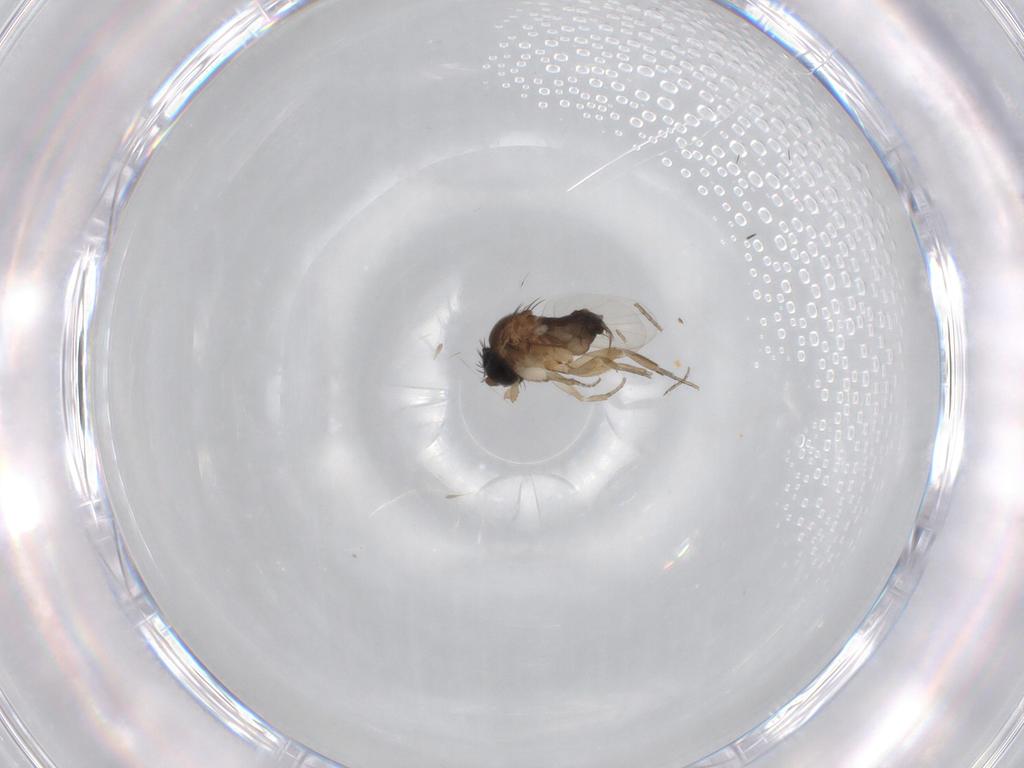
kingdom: Animalia
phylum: Arthropoda
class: Insecta
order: Diptera
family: Phoridae
